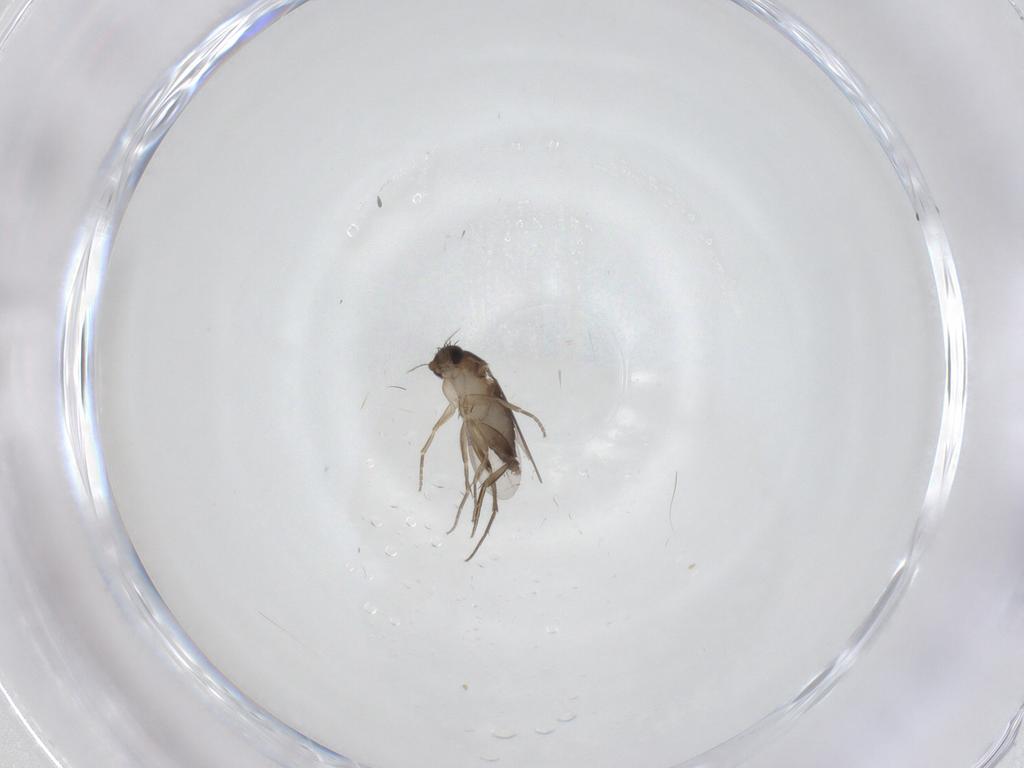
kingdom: Animalia
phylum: Arthropoda
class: Insecta
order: Diptera
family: Phoridae
